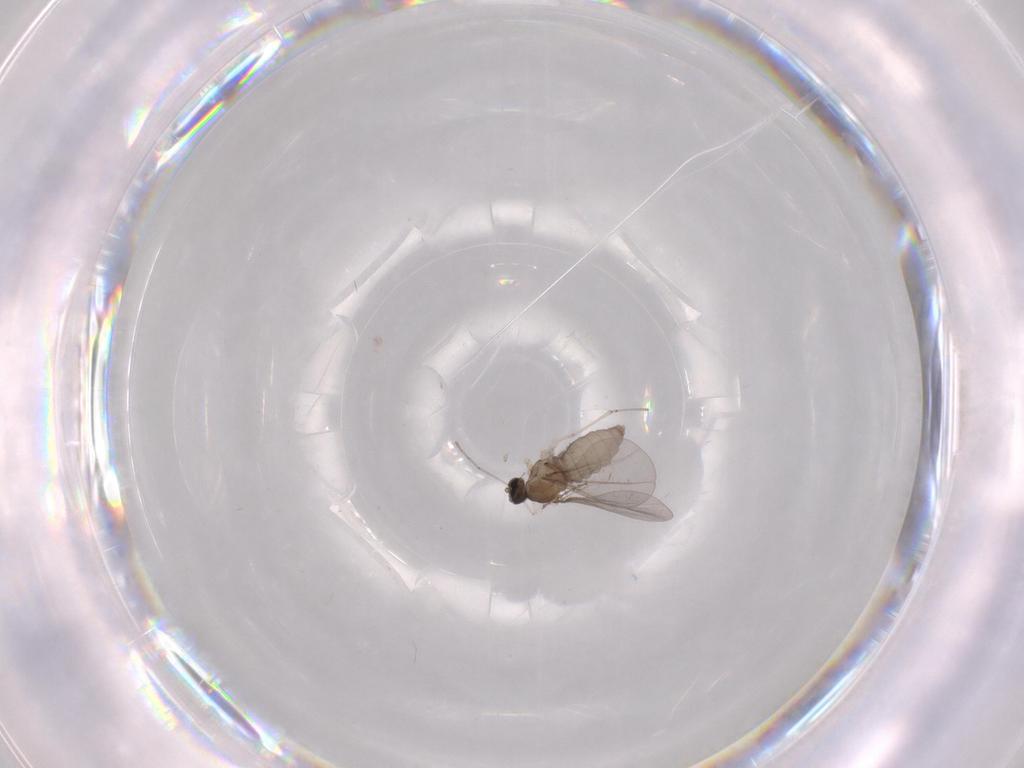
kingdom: Animalia
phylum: Arthropoda
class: Insecta
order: Diptera
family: Cecidomyiidae
